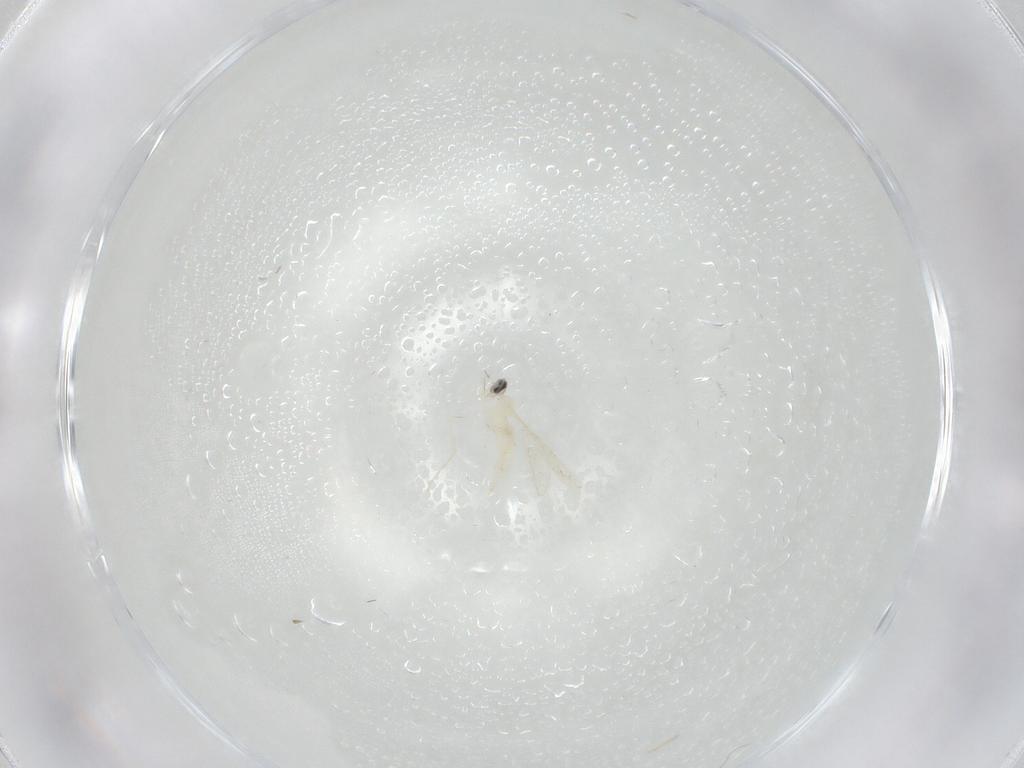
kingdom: Animalia
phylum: Arthropoda
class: Insecta
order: Diptera
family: Cecidomyiidae
